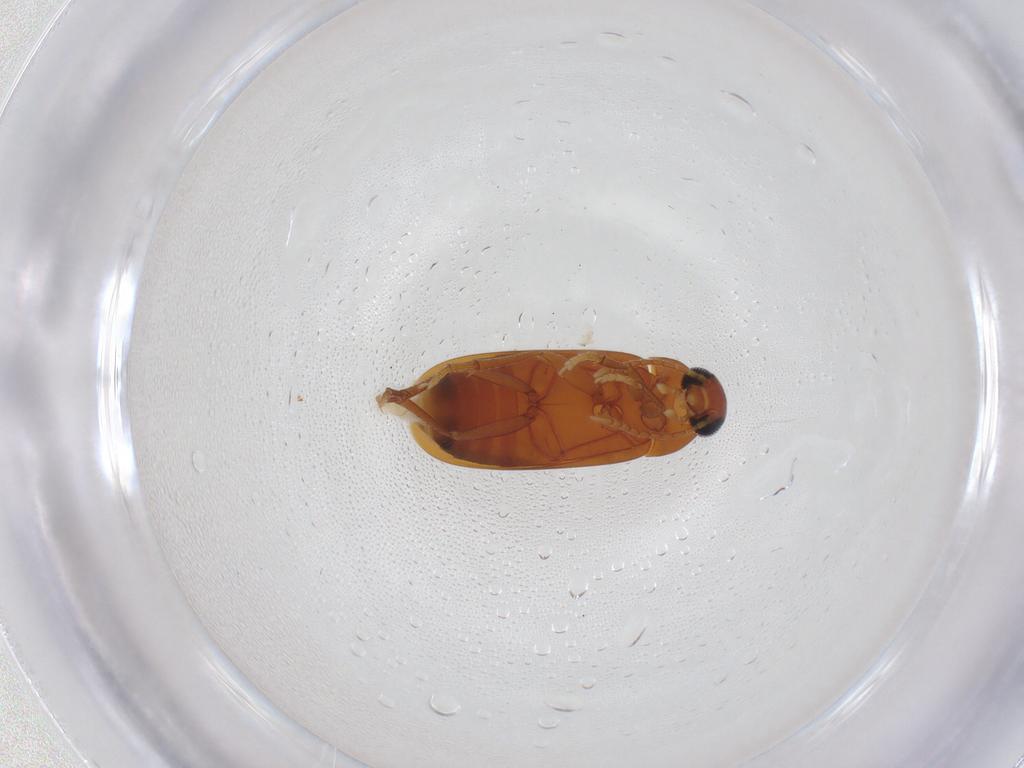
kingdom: Animalia
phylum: Arthropoda
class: Insecta
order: Coleoptera
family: Scraptiidae
